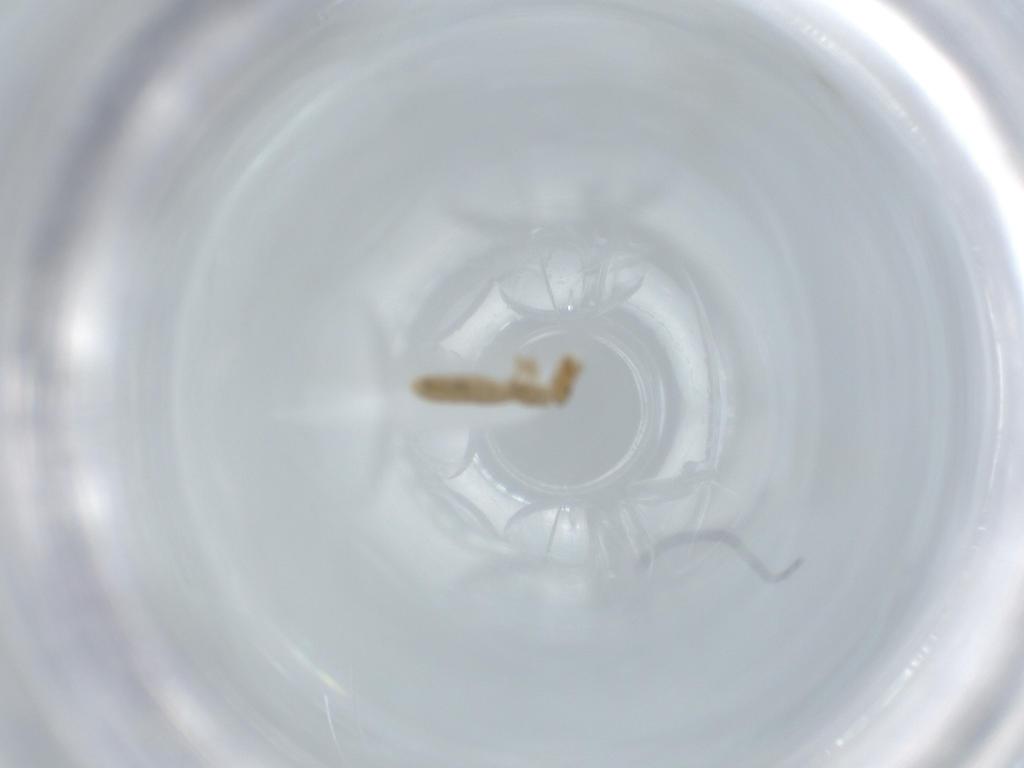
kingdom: Animalia
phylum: Arthropoda
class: Insecta
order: Psocodea
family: Liposcelididae
